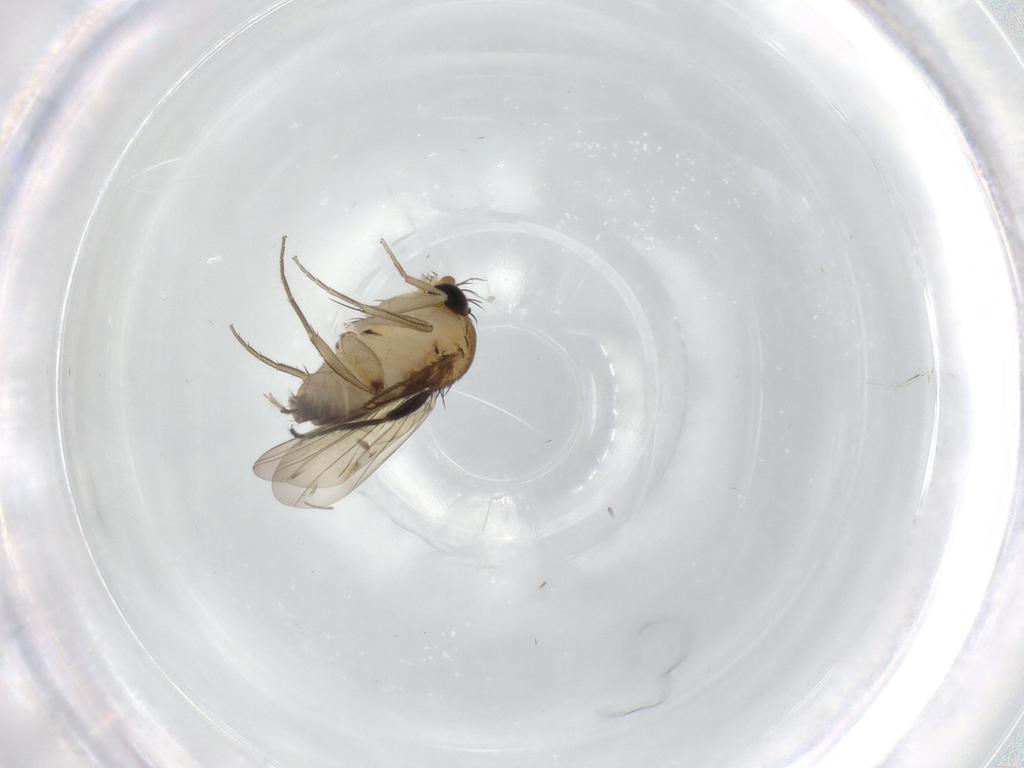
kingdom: Animalia
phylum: Arthropoda
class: Insecta
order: Diptera
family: Phoridae
